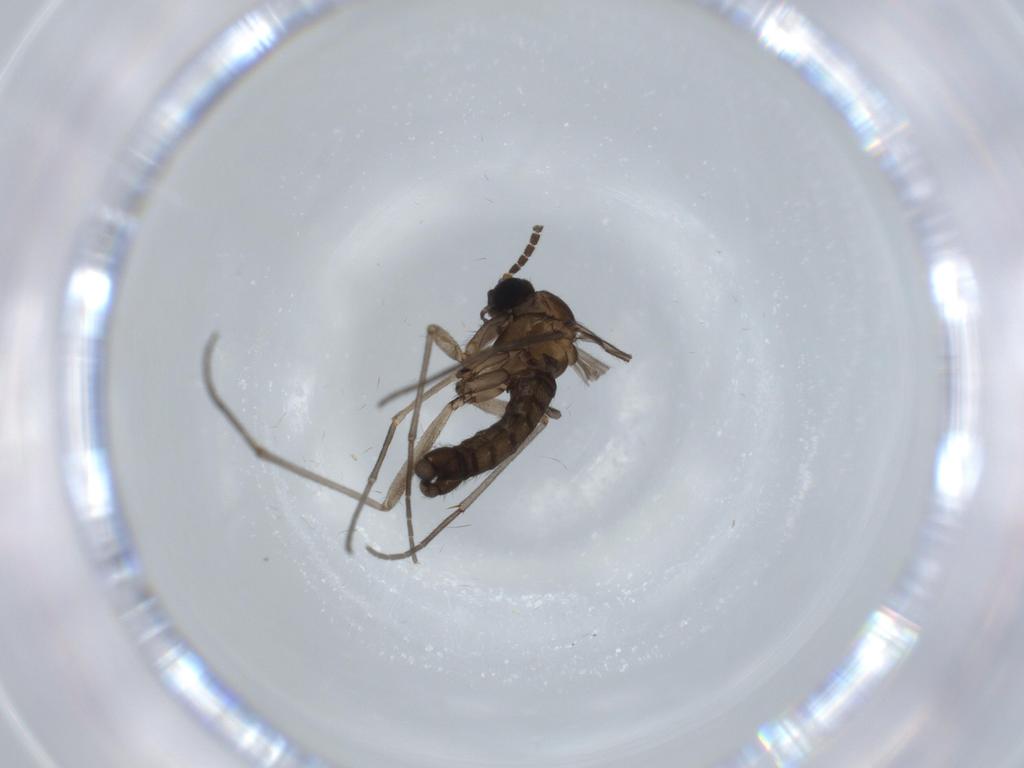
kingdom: Animalia
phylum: Arthropoda
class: Insecta
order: Diptera
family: Sciaridae
